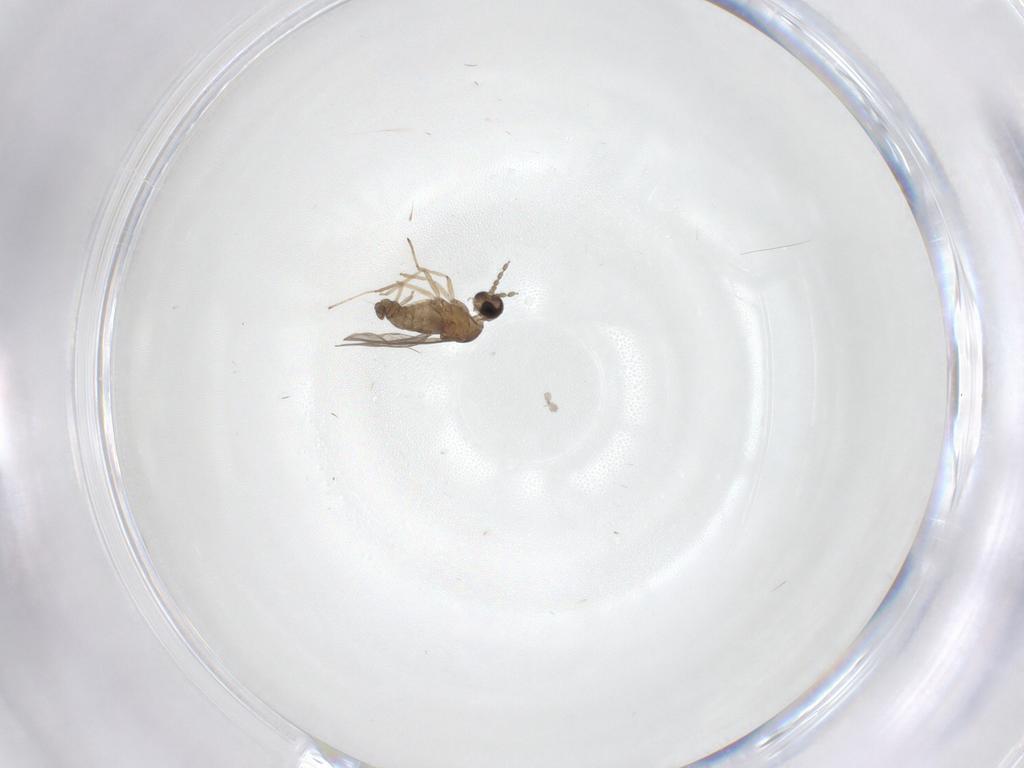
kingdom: Animalia
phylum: Arthropoda
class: Insecta
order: Diptera
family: Cecidomyiidae
